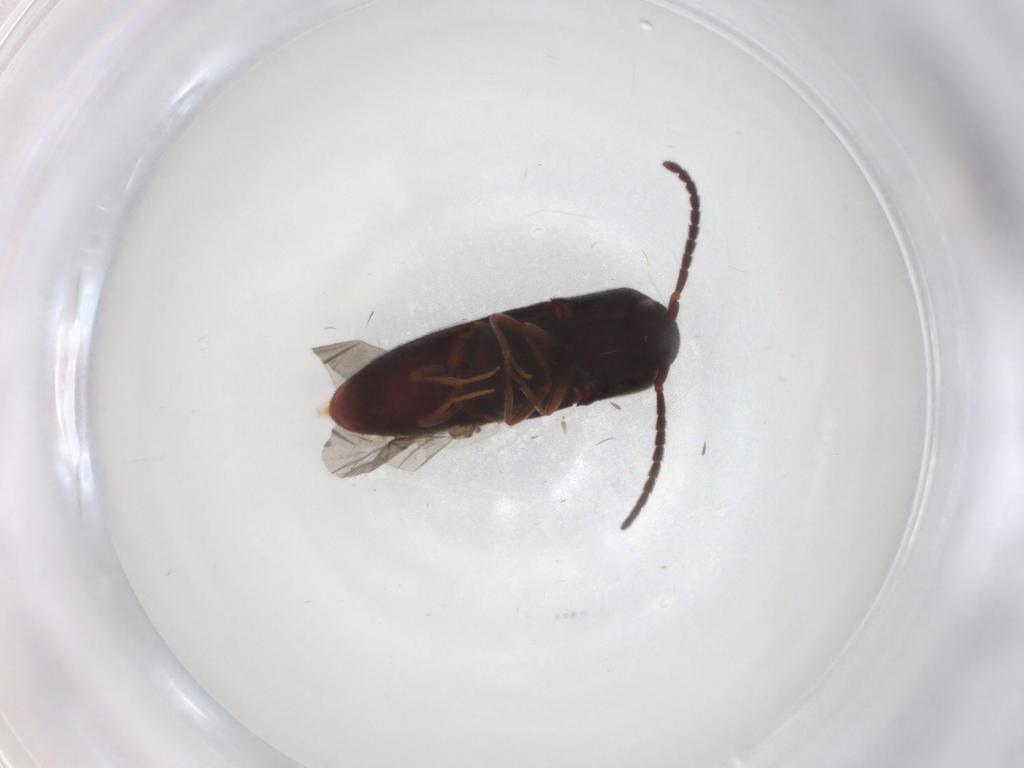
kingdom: Animalia
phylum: Arthropoda
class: Insecta
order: Coleoptera
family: Eucnemidae
